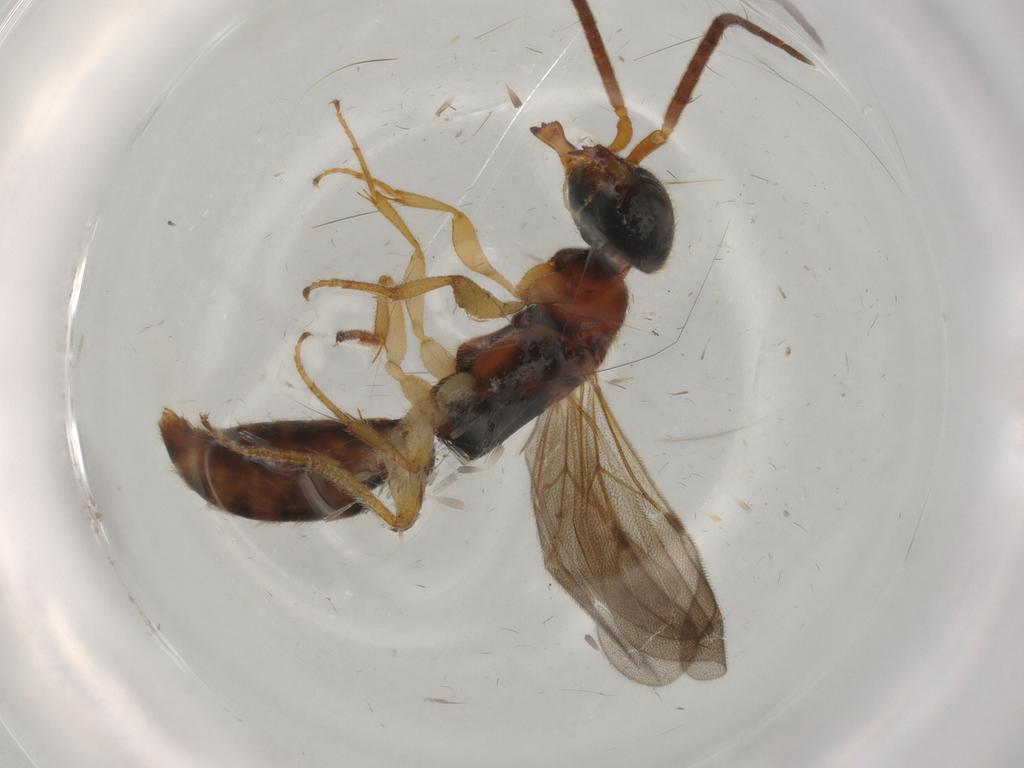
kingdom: Animalia
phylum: Arthropoda
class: Insecta
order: Hymenoptera
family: Bethylidae
